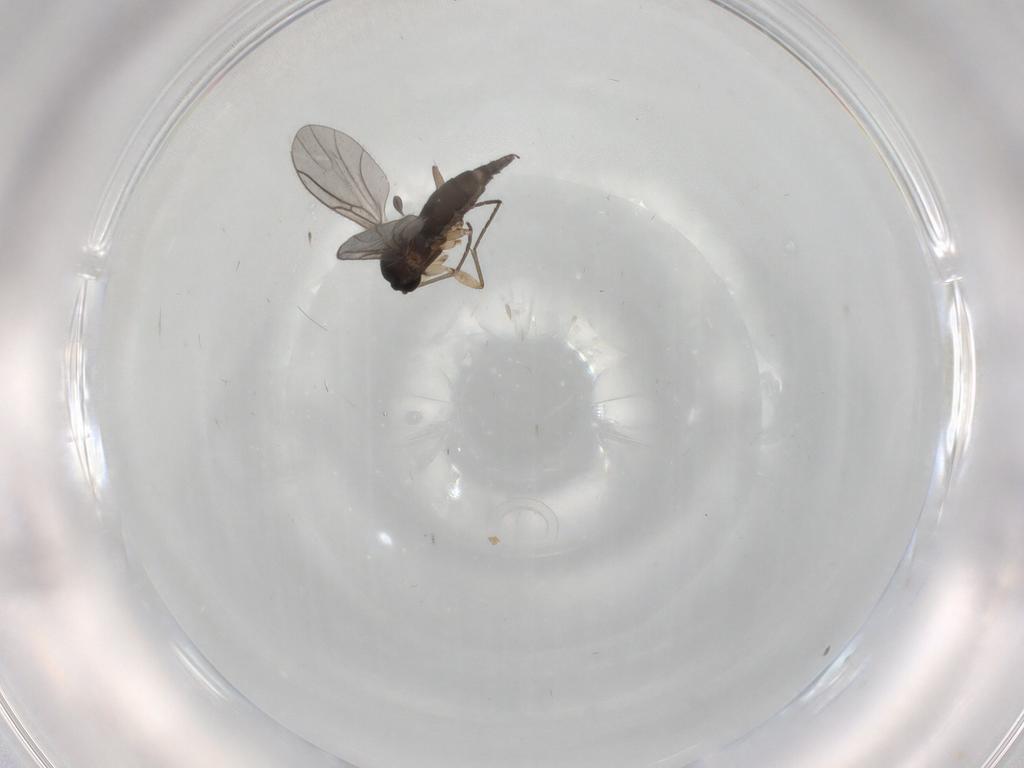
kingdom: Animalia
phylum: Arthropoda
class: Insecta
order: Diptera
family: Sciaridae
